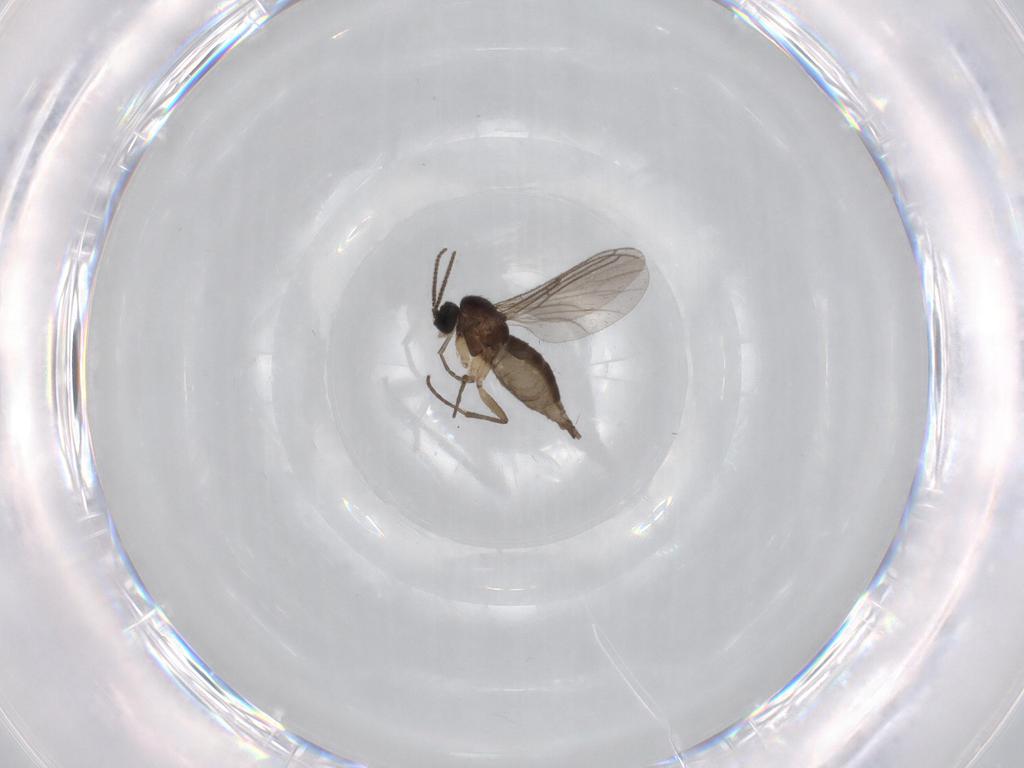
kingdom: Animalia
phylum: Arthropoda
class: Insecta
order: Diptera
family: Sciaridae
